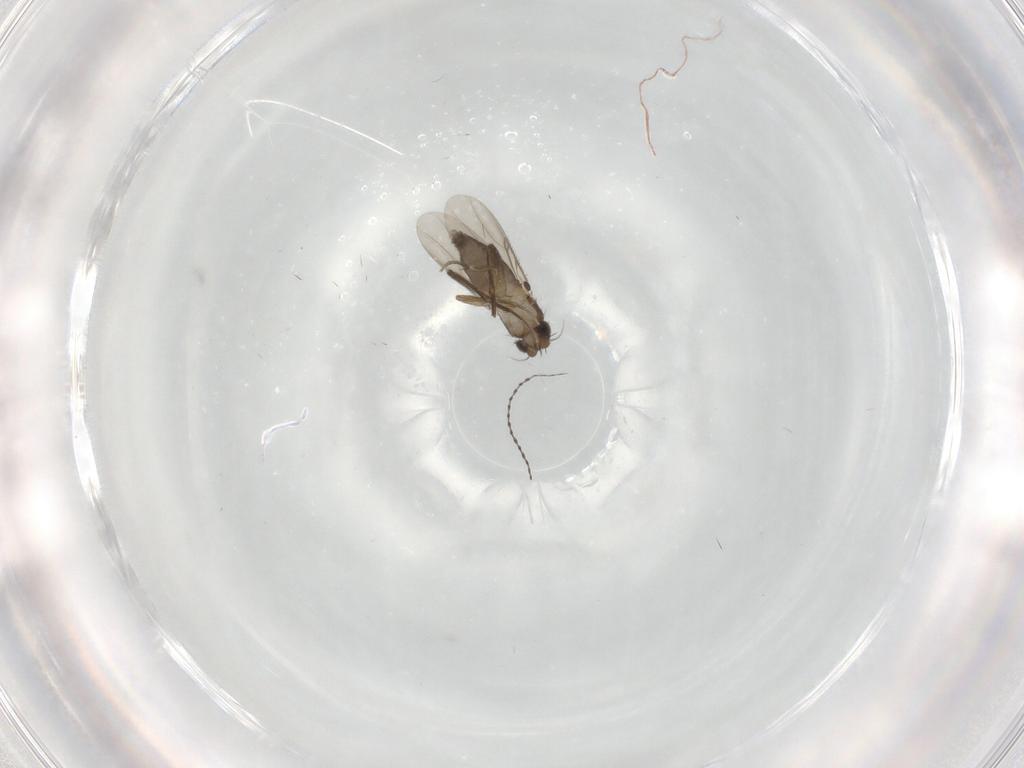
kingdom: Animalia
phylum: Arthropoda
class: Insecta
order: Diptera
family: Phoridae
